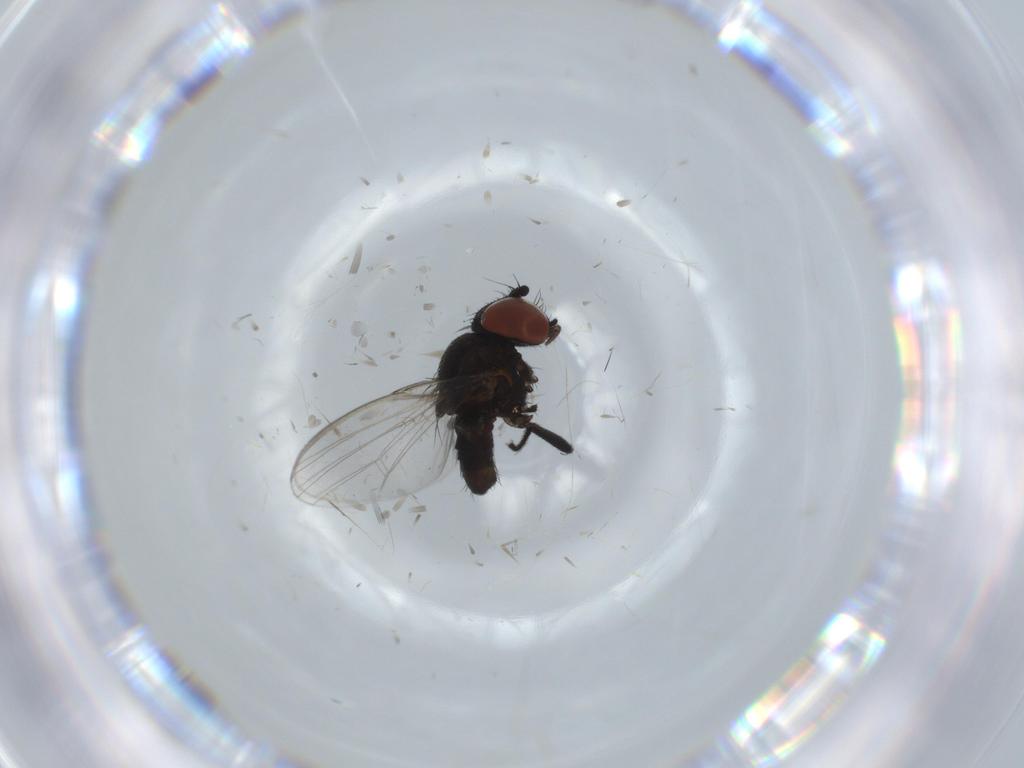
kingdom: Animalia
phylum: Arthropoda
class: Insecta
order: Diptera
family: Milichiidae
